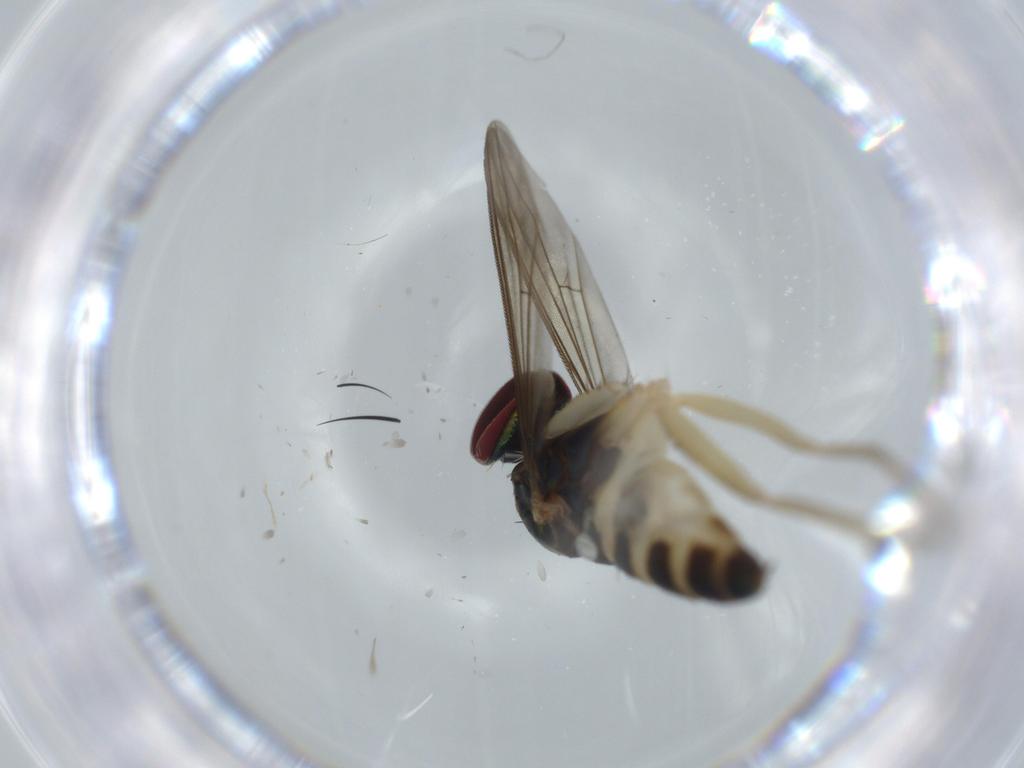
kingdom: Animalia
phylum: Arthropoda
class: Insecta
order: Diptera
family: Dolichopodidae
